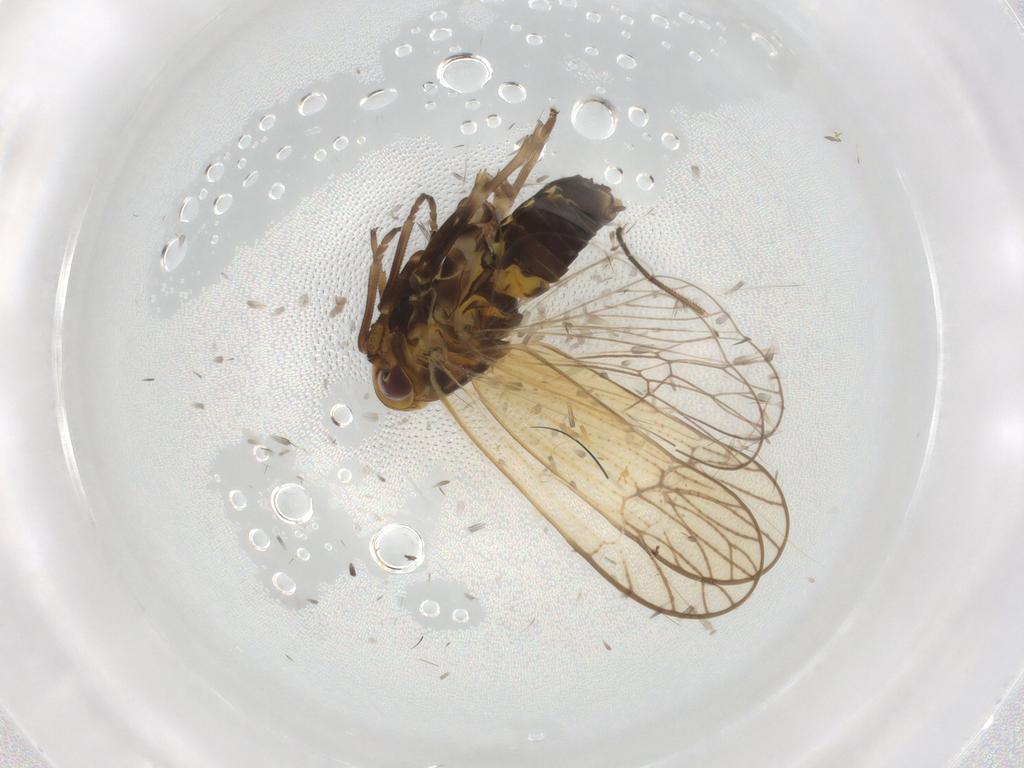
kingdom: Animalia
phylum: Arthropoda
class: Insecta
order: Hemiptera
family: Delphacidae
